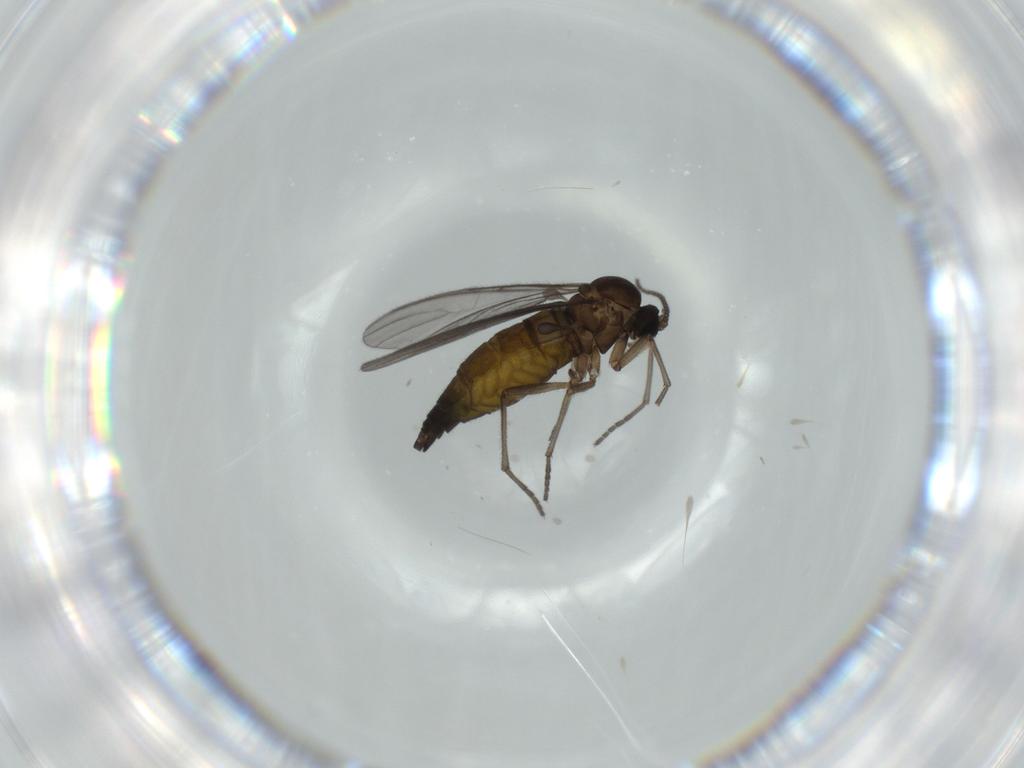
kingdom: Animalia
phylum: Arthropoda
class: Insecta
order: Diptera
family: Sciaridae
